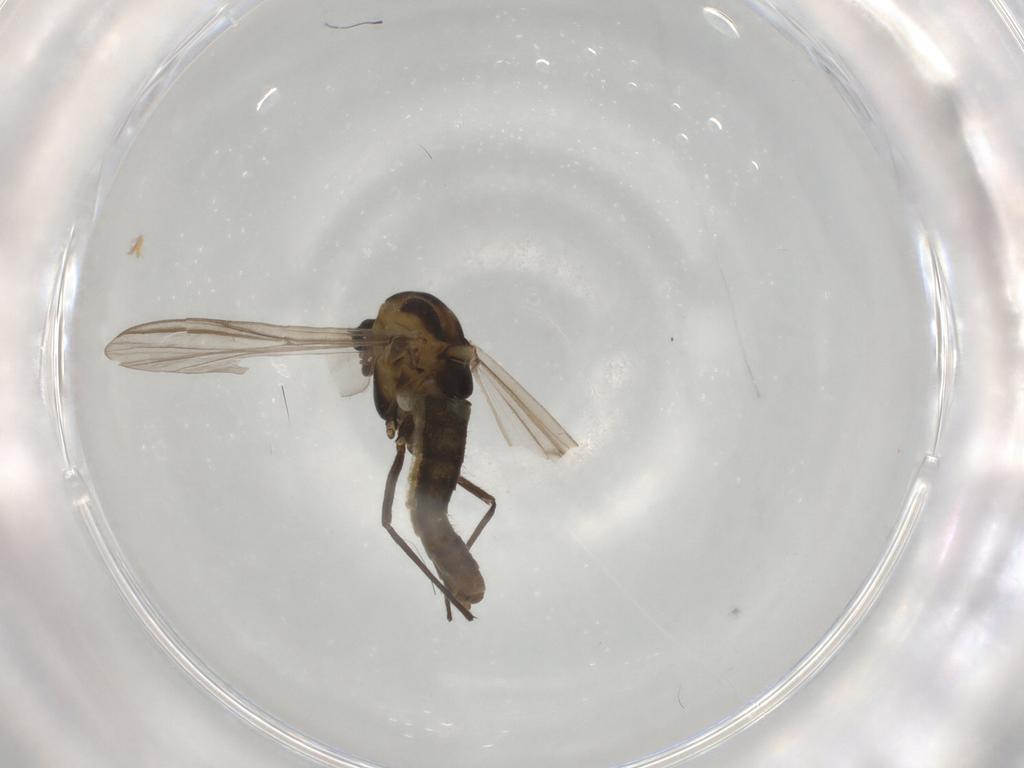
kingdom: Animalia
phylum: Arthropoda
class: Insecta
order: Diptera
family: Chironomidae
